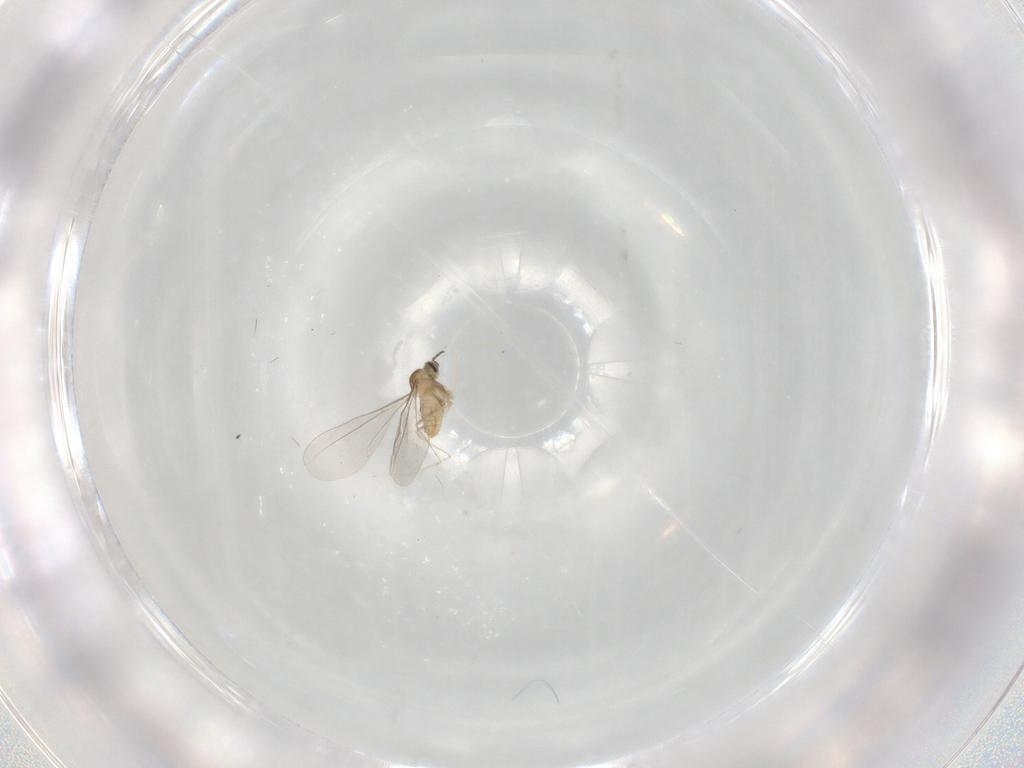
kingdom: Animalia
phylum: Arthropoda
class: Insecta
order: Diptera
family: Cecidomyiidae
